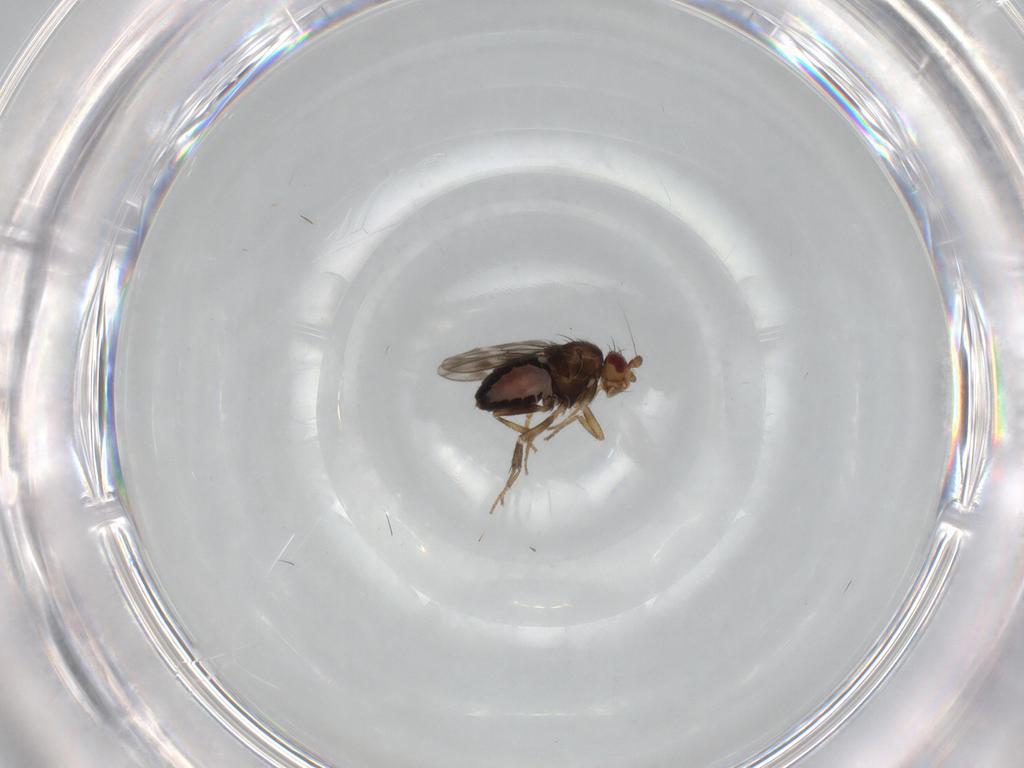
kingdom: Animalia
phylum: Arthropoda
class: Insecta
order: Diptera
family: Sphaeroceridae
